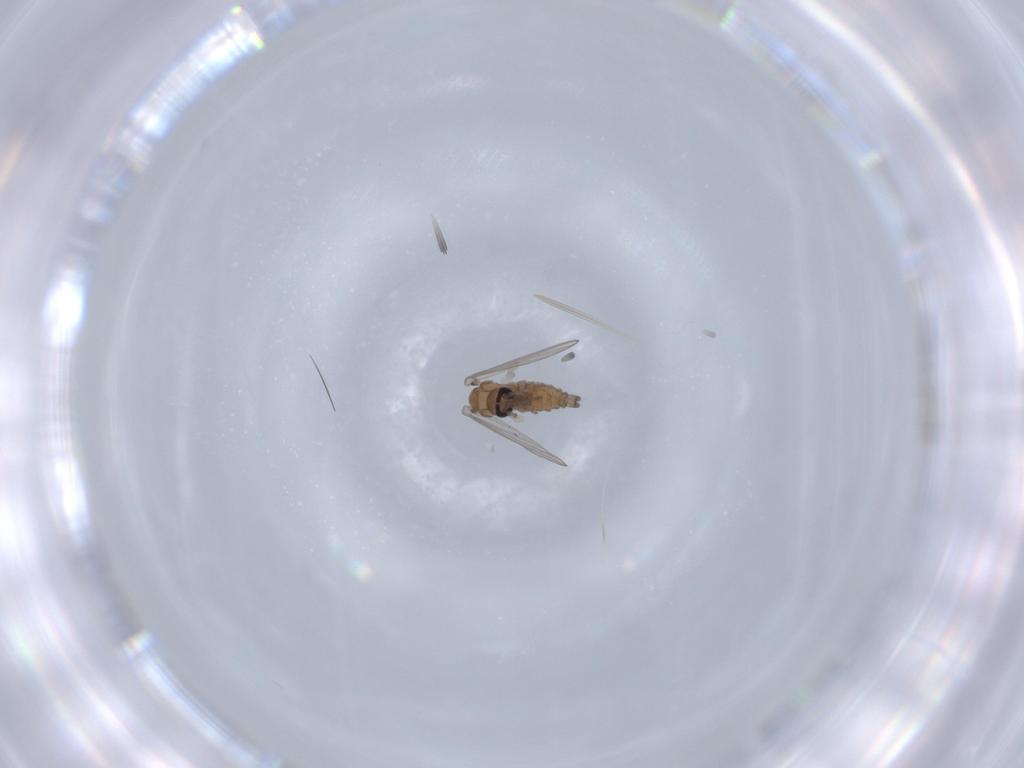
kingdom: Animalia
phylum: Arthropoda
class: Insecta
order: Diptera
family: Psychodidae
